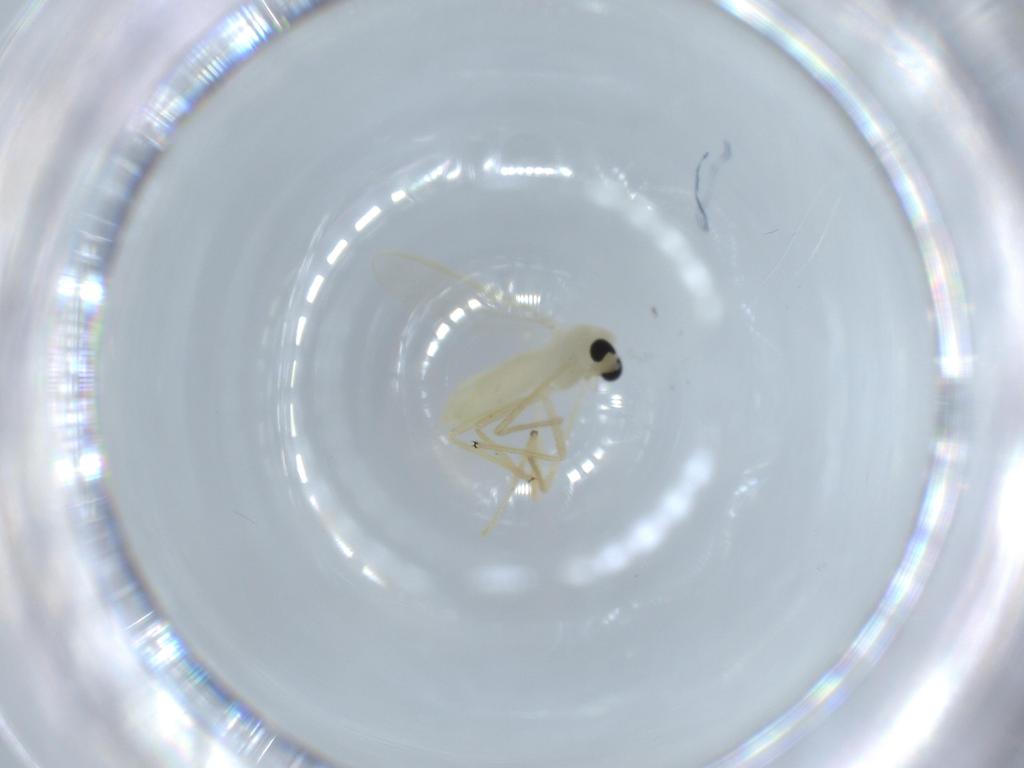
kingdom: Animalia
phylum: Arthropoda
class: Insecta
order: Diptera
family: Chironomidae
